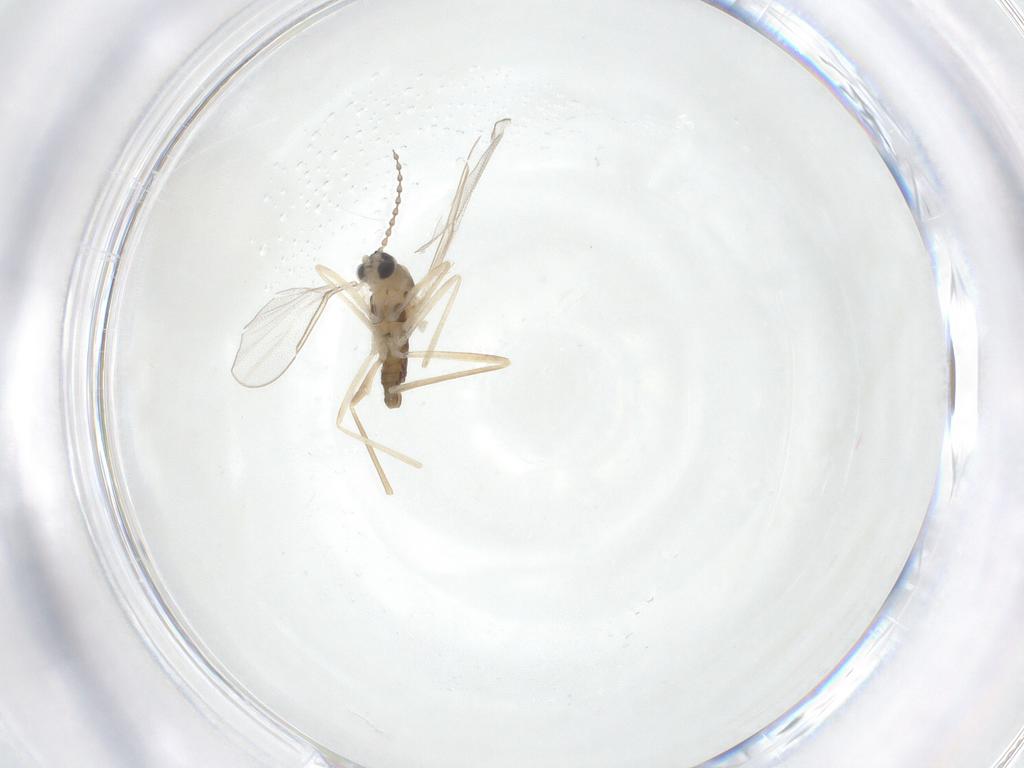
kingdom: Animalia
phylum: Arthropoda
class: Insecta
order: Diptera
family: Cecidomyiidae
